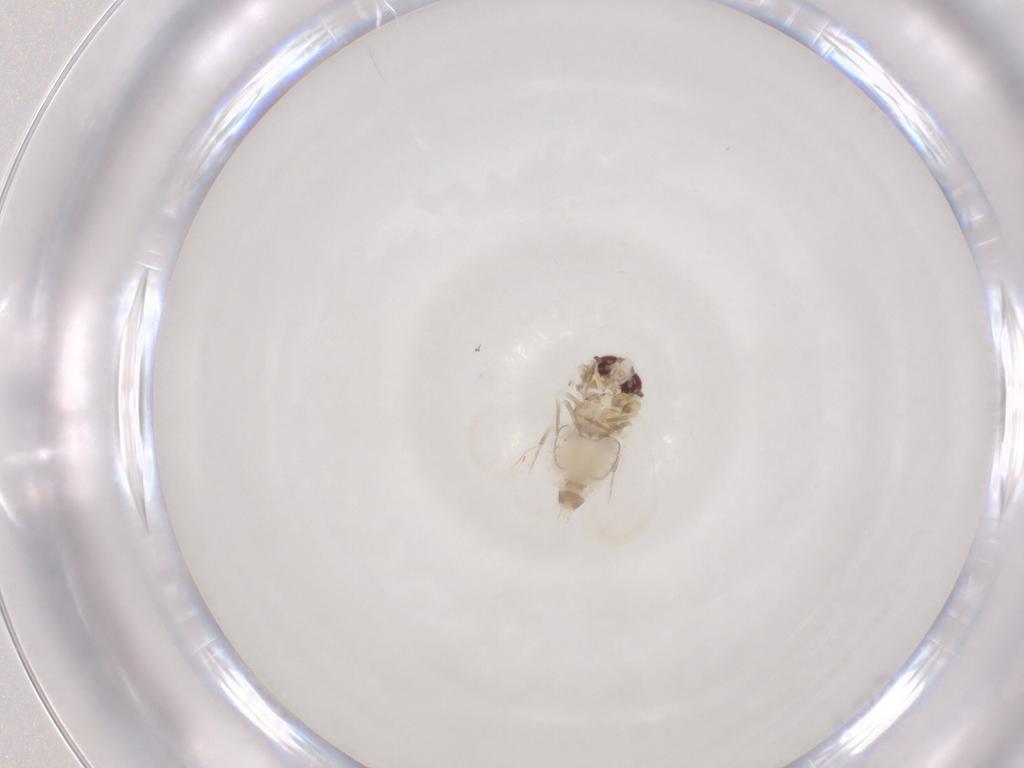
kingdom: Animalia
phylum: Arthropoda
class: Insecta
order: Hemiptera
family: Aleyrodidae
